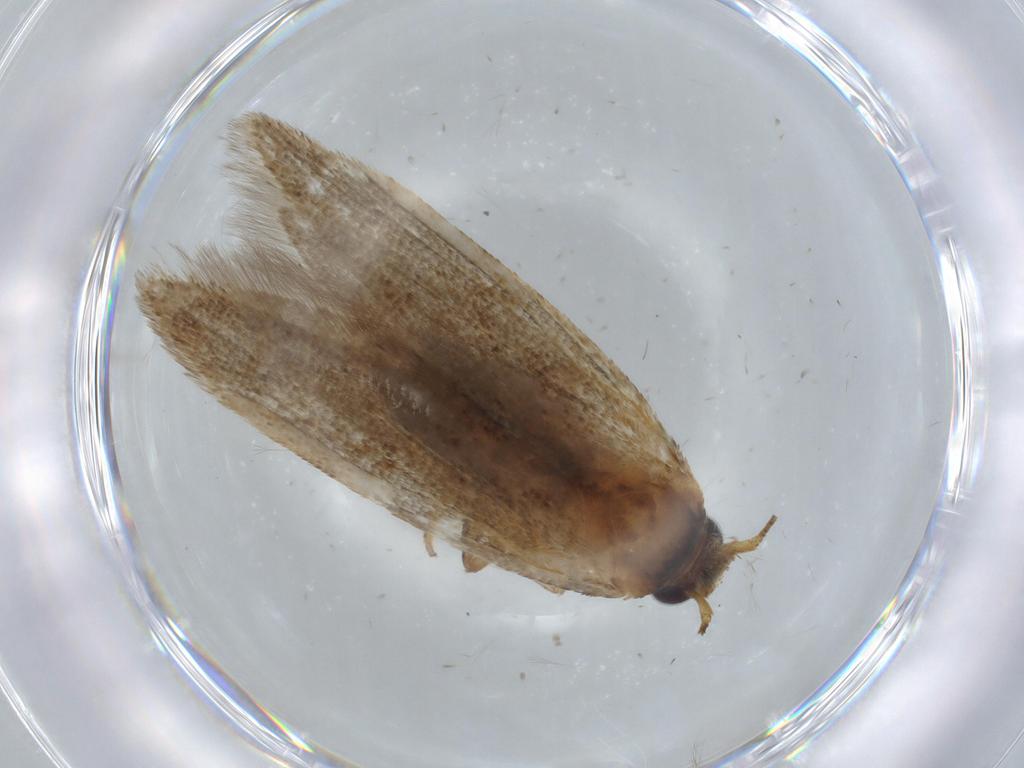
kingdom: Animalia
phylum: Arthropoda
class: Insecta
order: Lepidoptera
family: Coleophoridae
